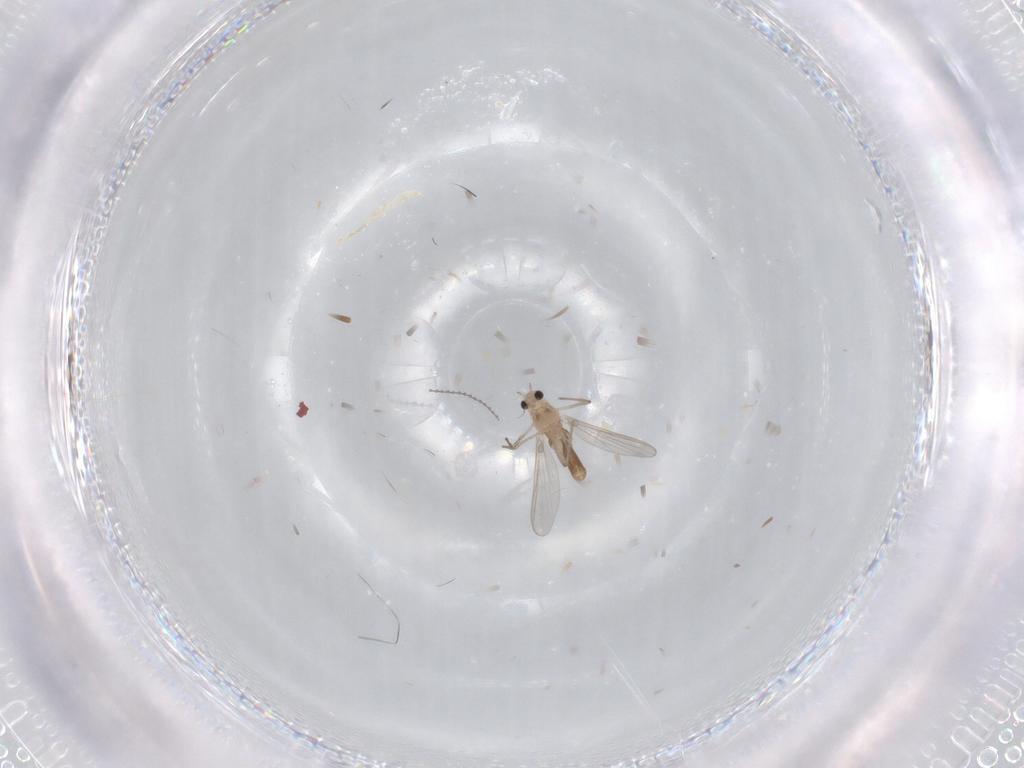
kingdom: Animalia
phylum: Arthropoda
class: Insecta
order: Diptera
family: Chironomidae
